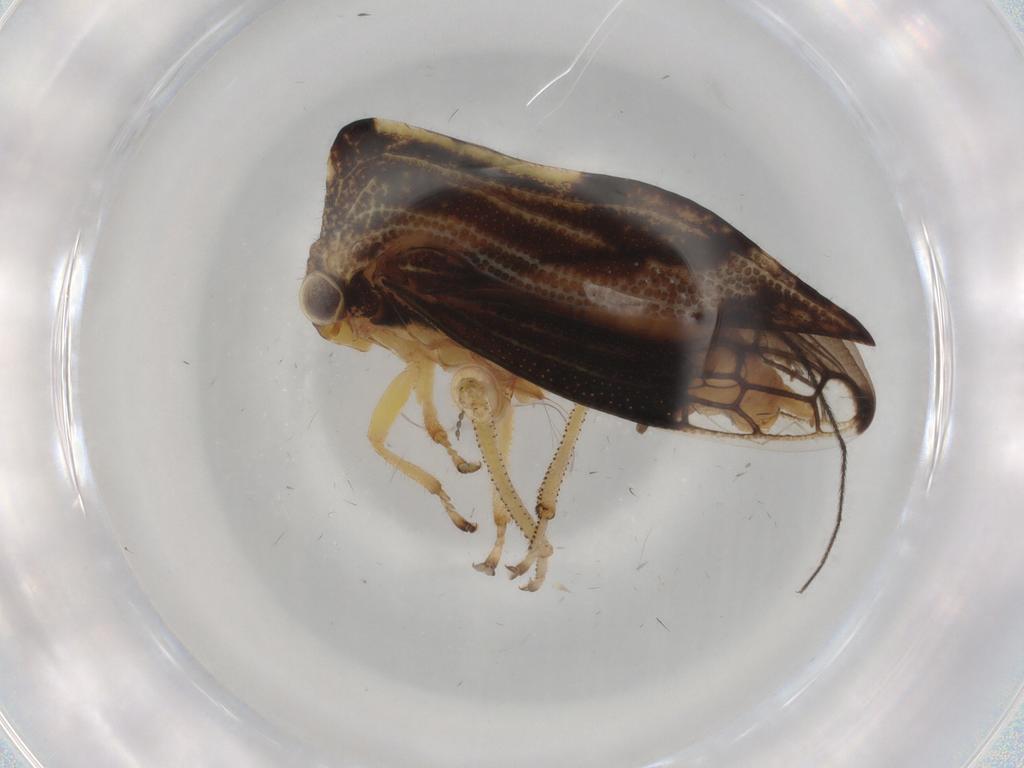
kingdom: Animalia
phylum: Arthropoda
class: Insecta
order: Hemiptera
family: Membracidae
